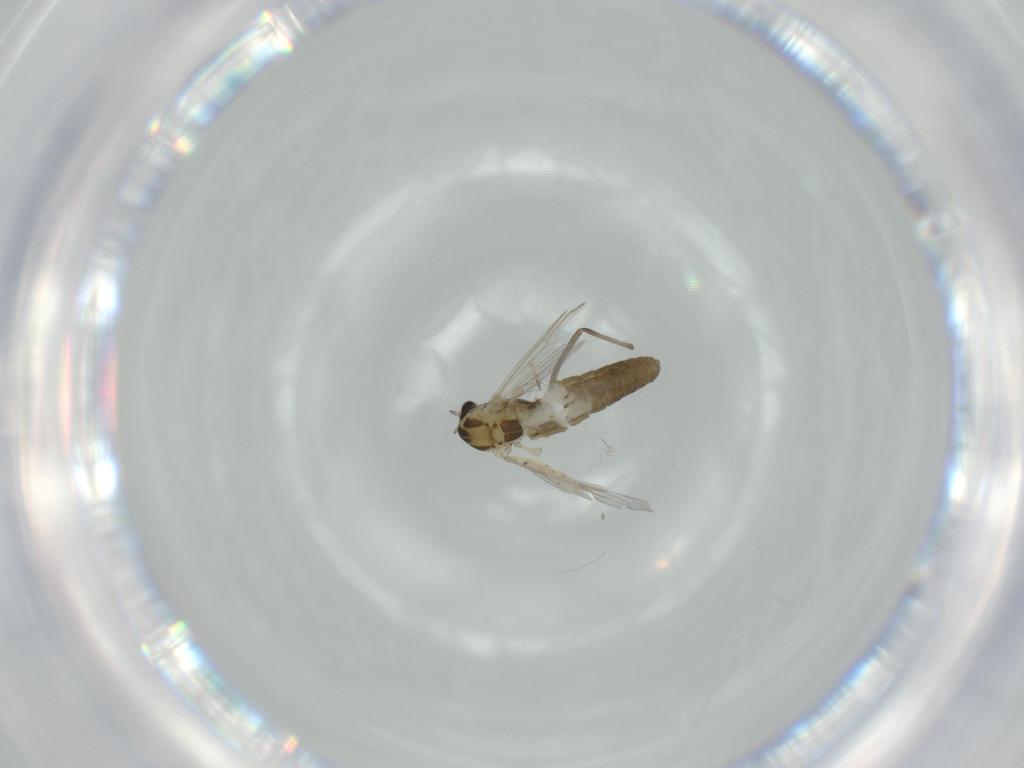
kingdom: Animalia
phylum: Arthropoda
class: Insecta
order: Diptera
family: Chironomidae
